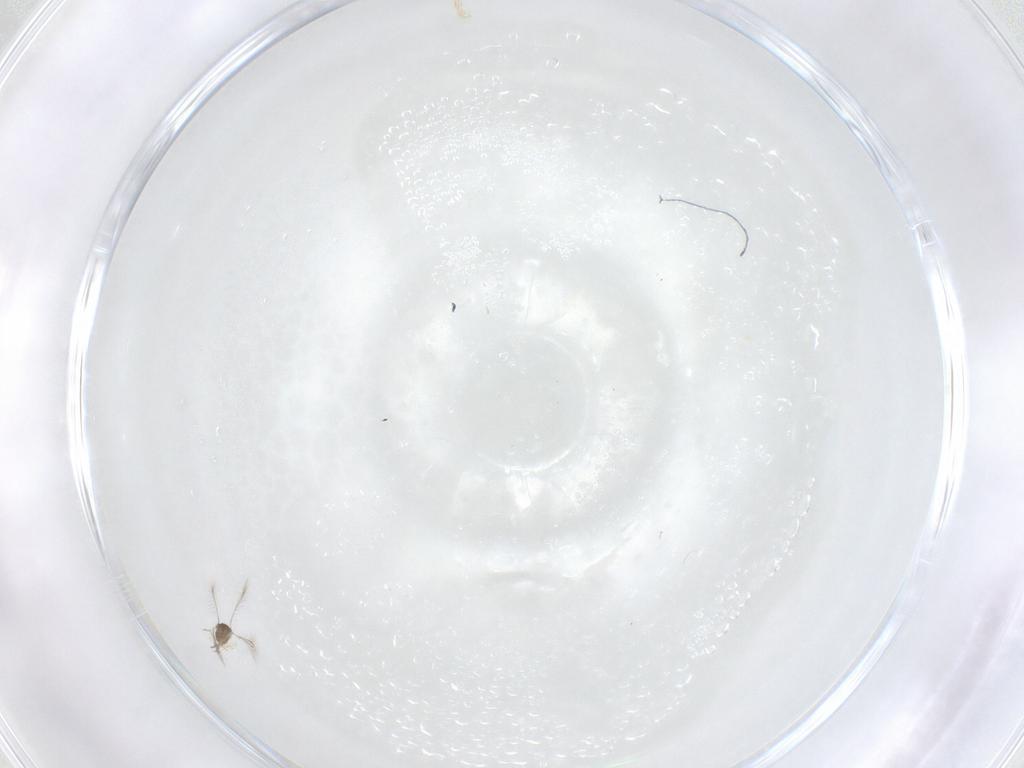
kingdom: Animalia
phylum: Arthropoda
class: Insecta
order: Hymenoptera
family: Mymaridae
